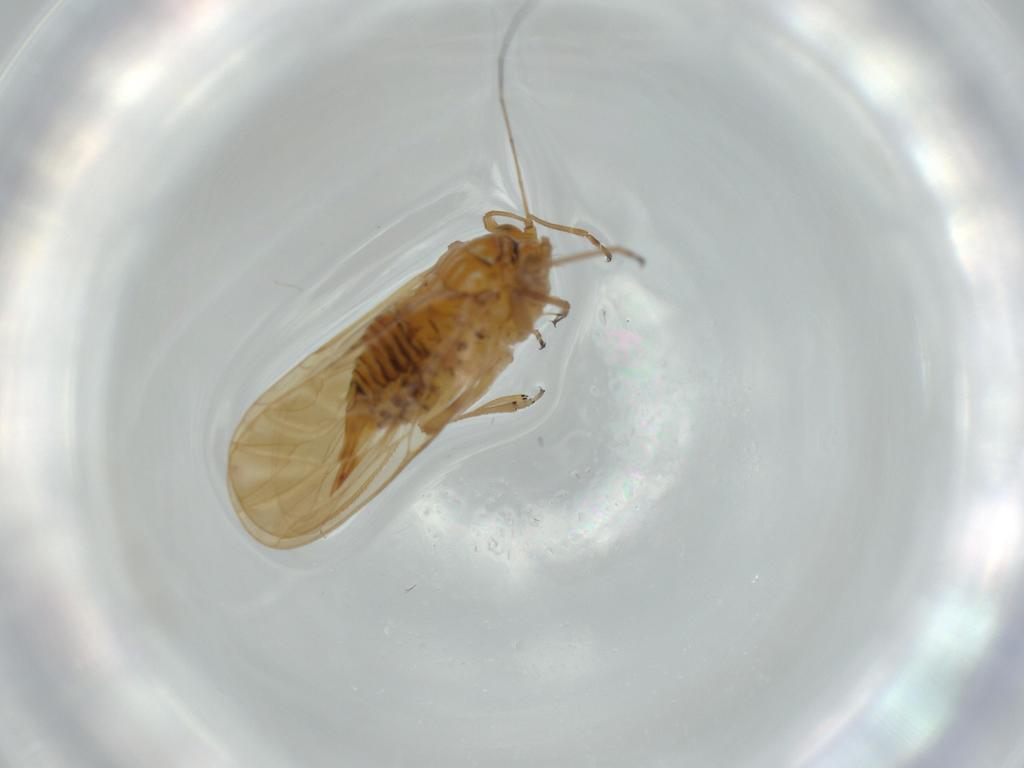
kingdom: Animalia
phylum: Arthropoda
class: Insecta
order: Hemiptera
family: Psyllidae
